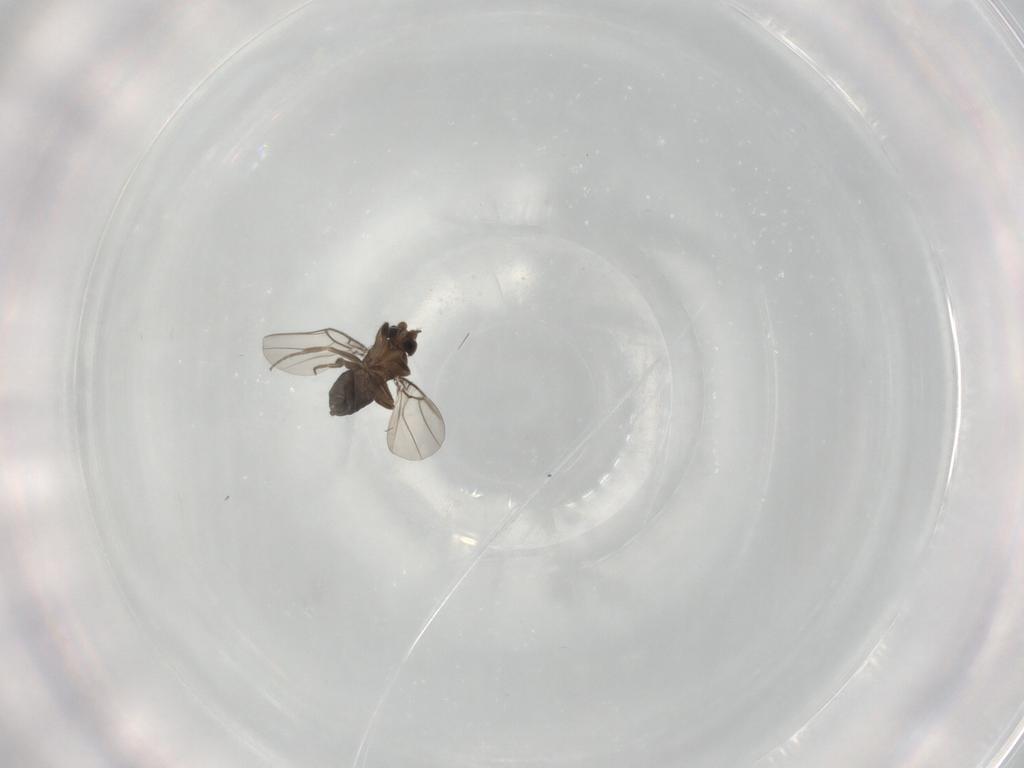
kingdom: Animalia
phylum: Arthropoda
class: Insecta
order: Diptera
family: Phoridae
